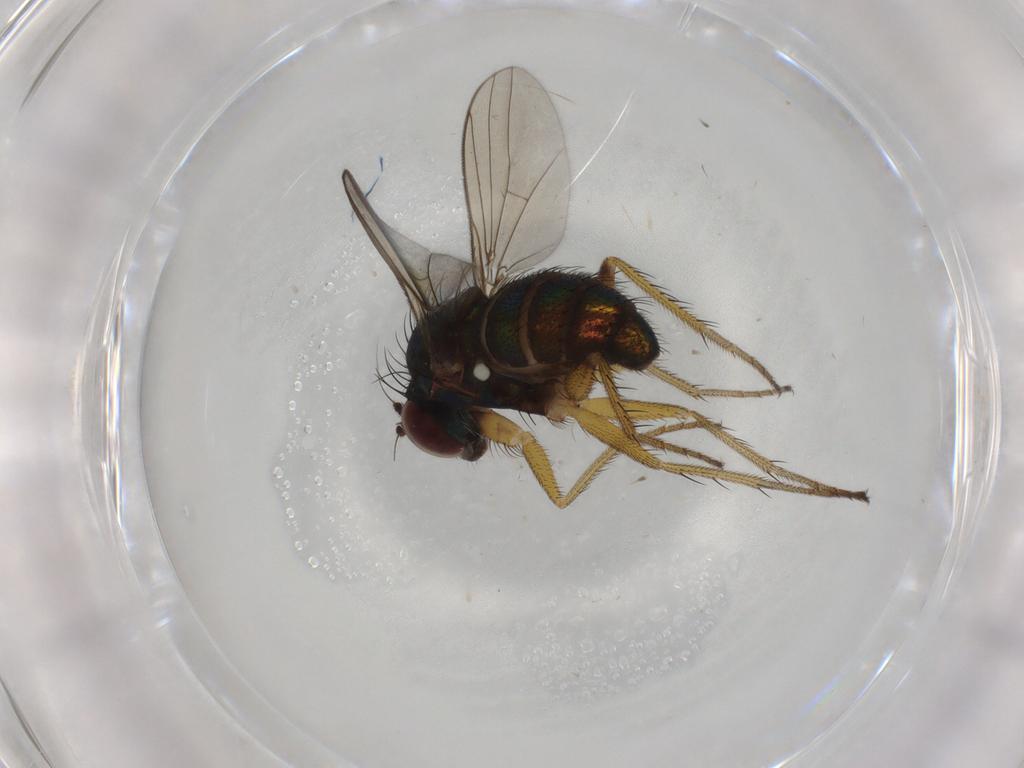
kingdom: Animalia
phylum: Arthropoda
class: Insecta
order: Diptera
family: Dolichopodidae
